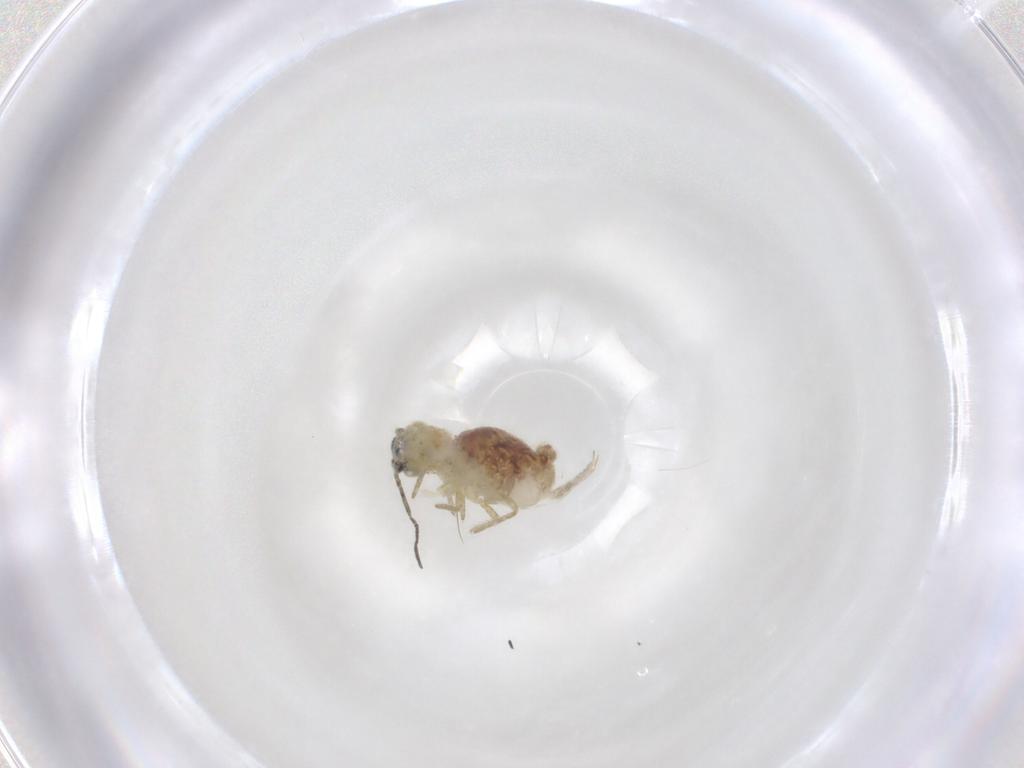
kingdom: Animalia
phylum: Arthropoda
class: Collembola
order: Symphypleona
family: Sminthuridae
